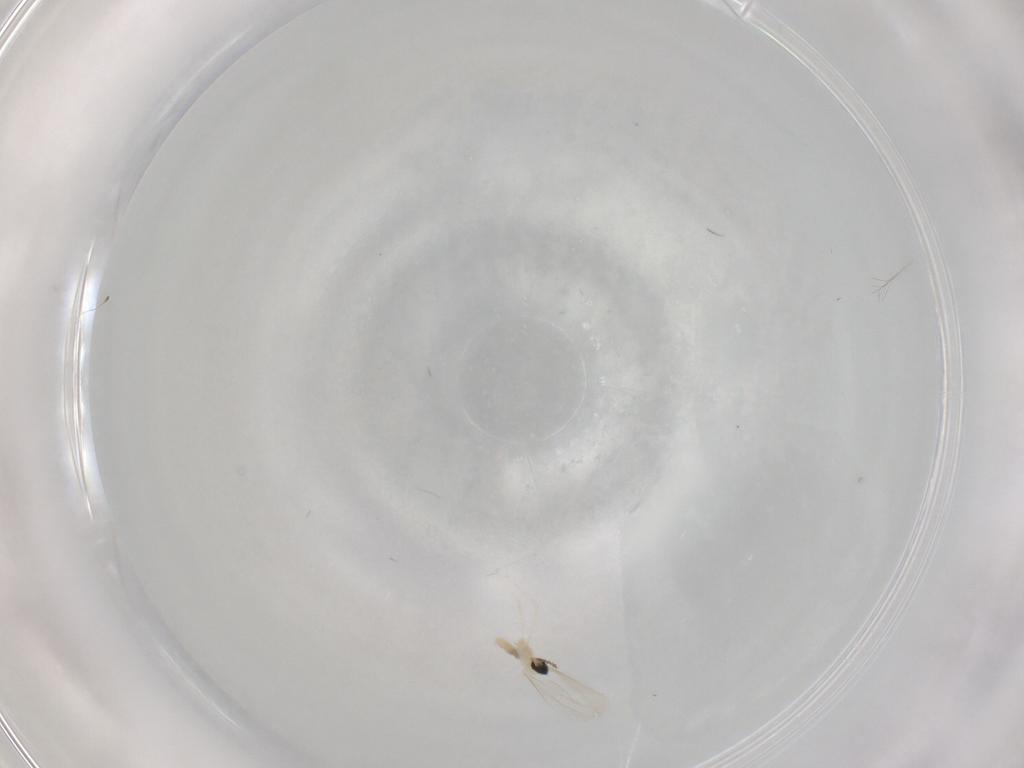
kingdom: Animalia
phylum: Arthropoda
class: Insecta
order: Diptera
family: Cecidomyiidae
